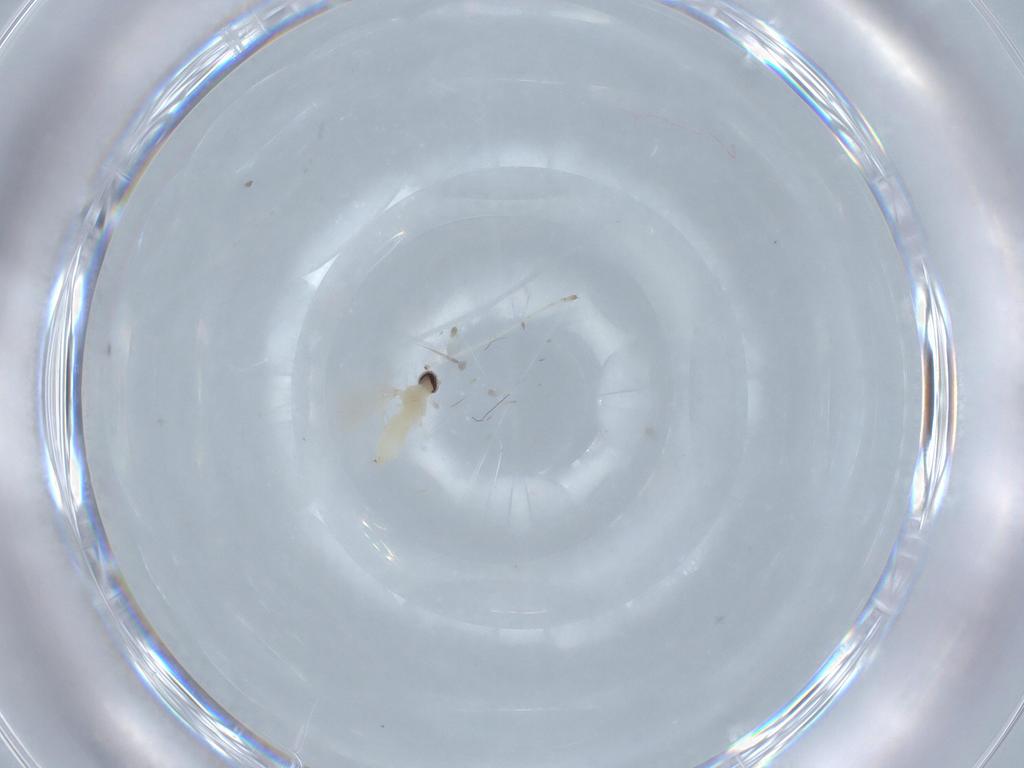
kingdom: Animalia
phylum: Arthropoda
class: Insecta
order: Diptera
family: Cecidomyiidae
